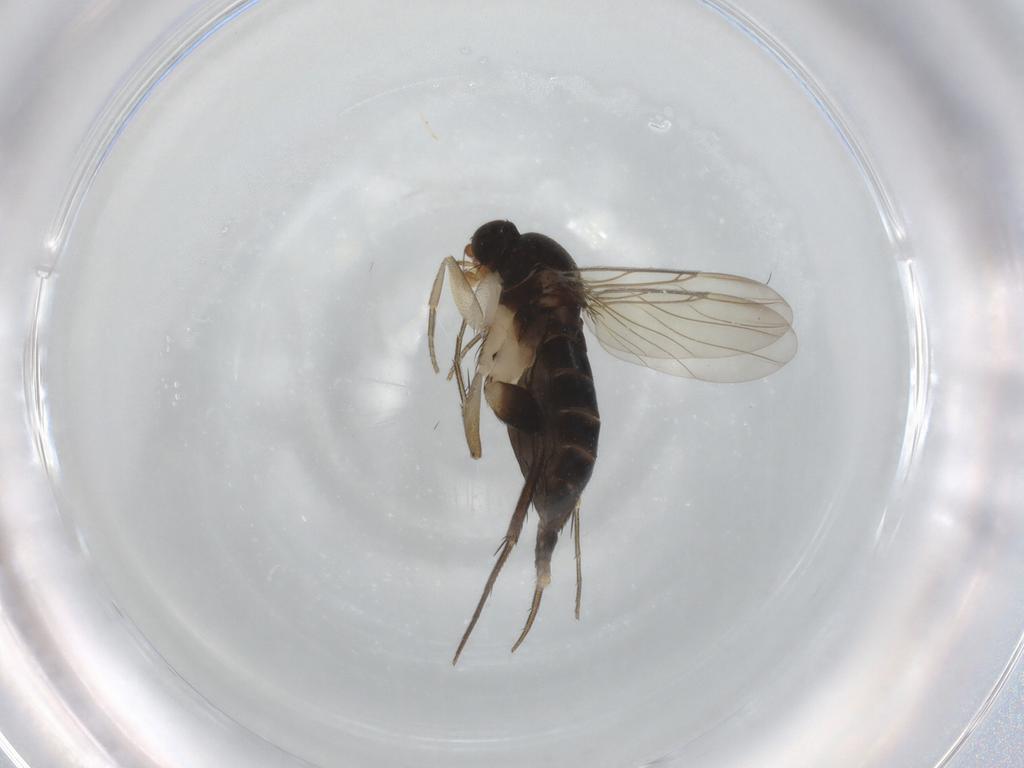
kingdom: Animalia
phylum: Arthropoda
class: Insecta
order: Diptera
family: Phoridae
